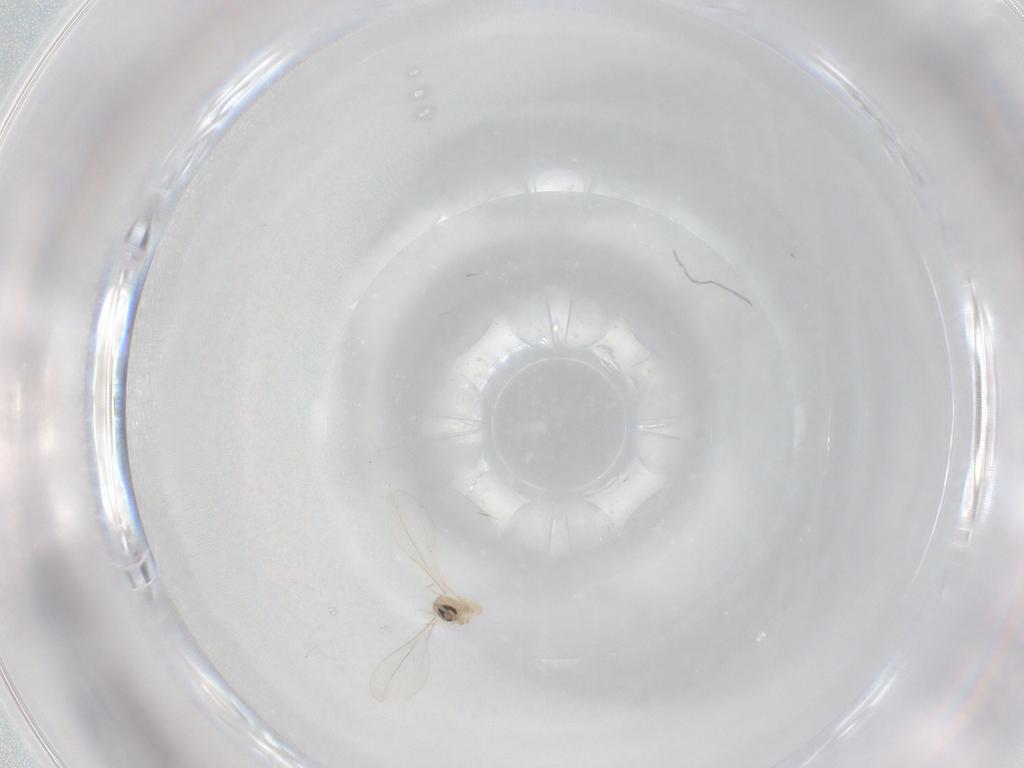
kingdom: Animalia
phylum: Arthropoda
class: Insecta
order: Diptera
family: Cecidomyiidae
